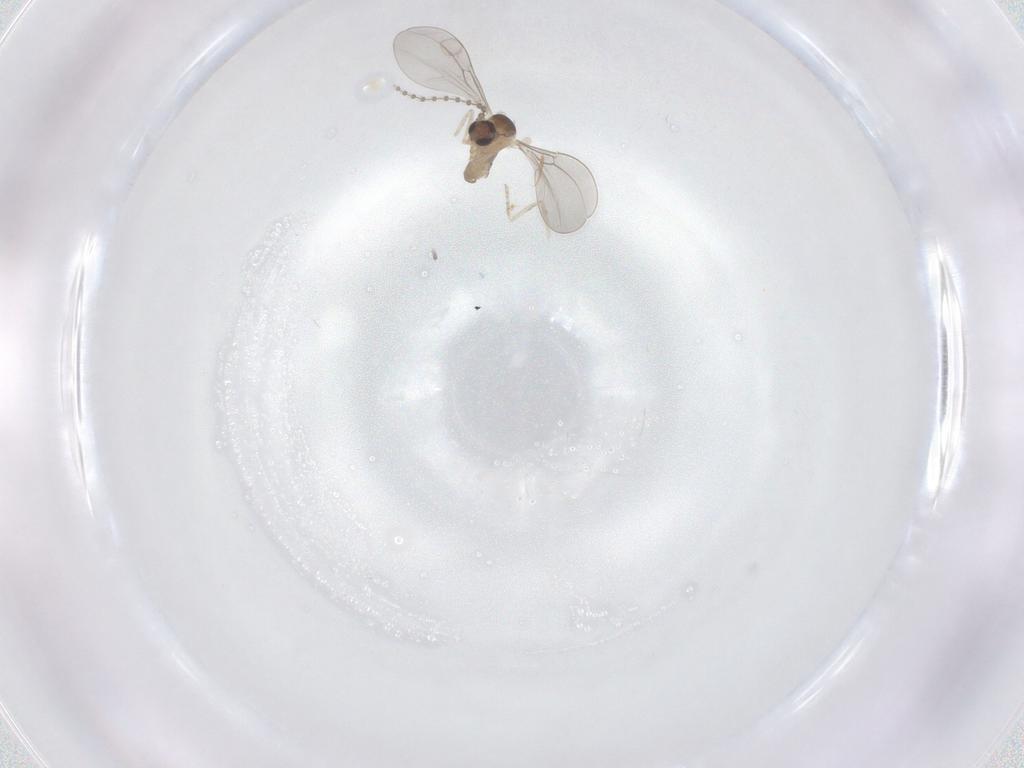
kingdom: Animalia
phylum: Arthropoda
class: Insecta
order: Diptera
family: Cecidomyiidae
